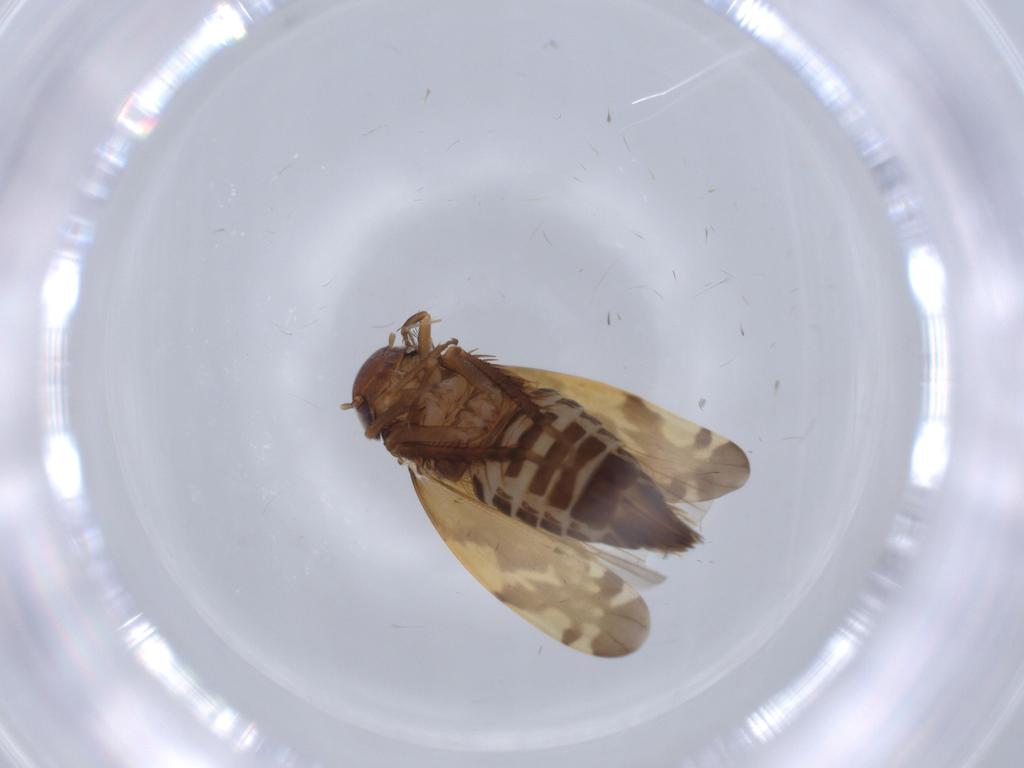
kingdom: Animalia
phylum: Arthropoda
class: Insecta
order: Hemiptera
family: Cicadellidae
